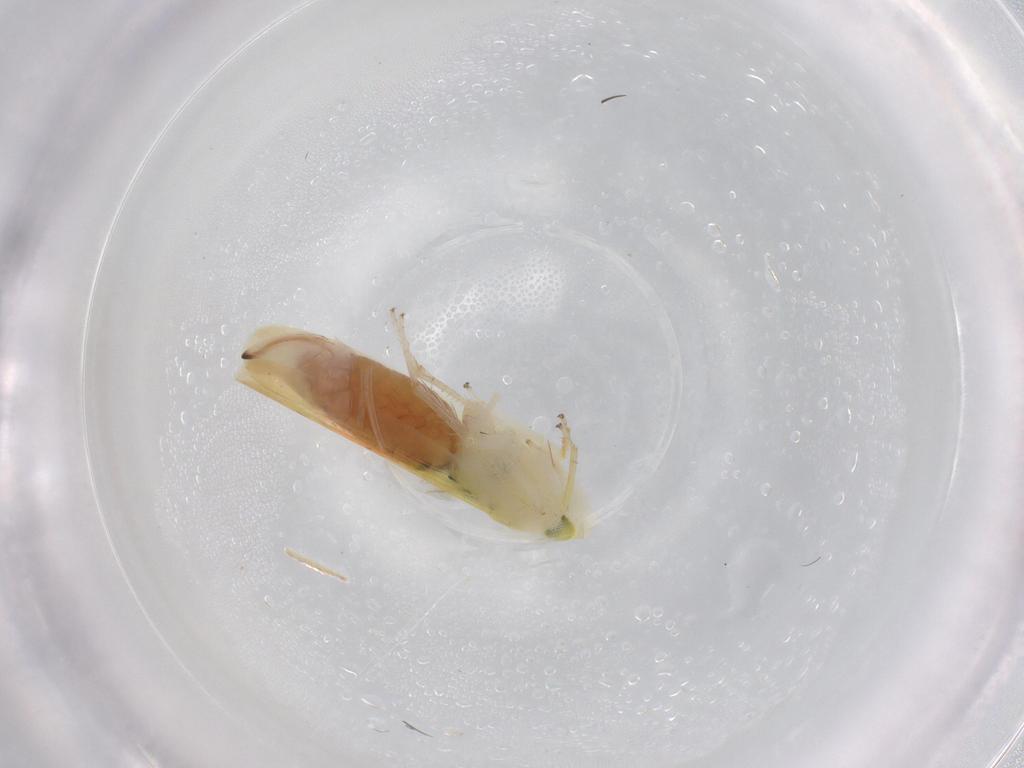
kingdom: Animalia
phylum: Arthropoda
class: Insecta
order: Hemiptera
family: Cicadellidae
